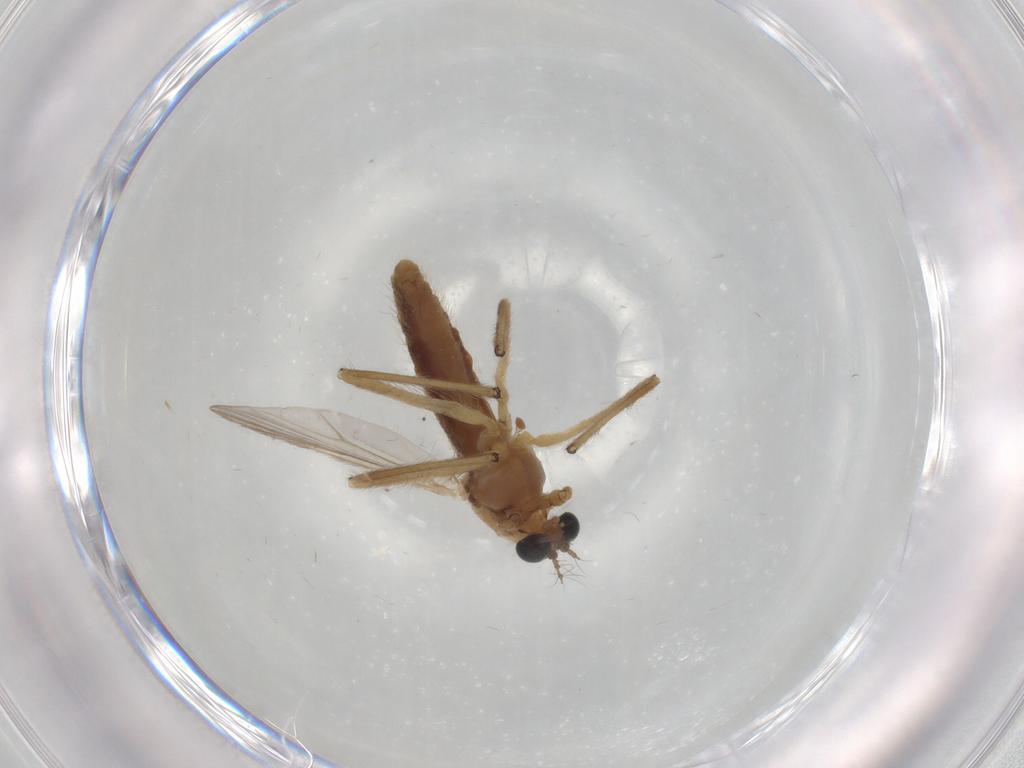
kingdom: Animalia
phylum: Arthropoda
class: Insecta
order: Diptera
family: Chironomidae
